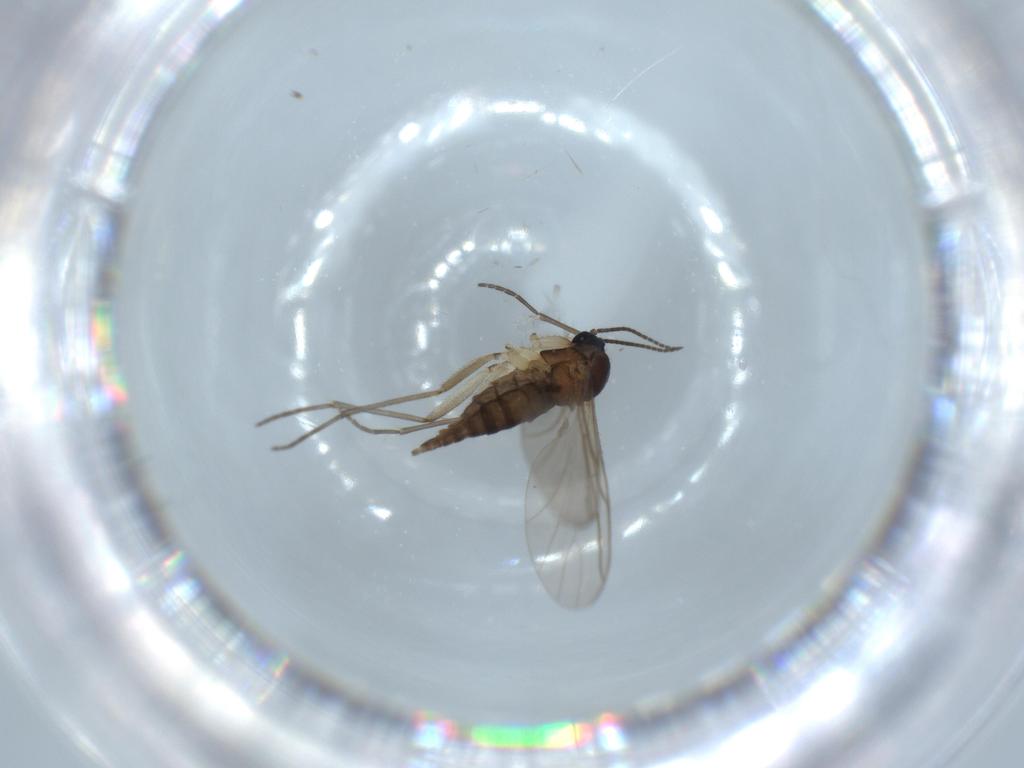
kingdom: Animalia
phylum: Arthropoda
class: Insecta
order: Diptera
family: Sciaridae
